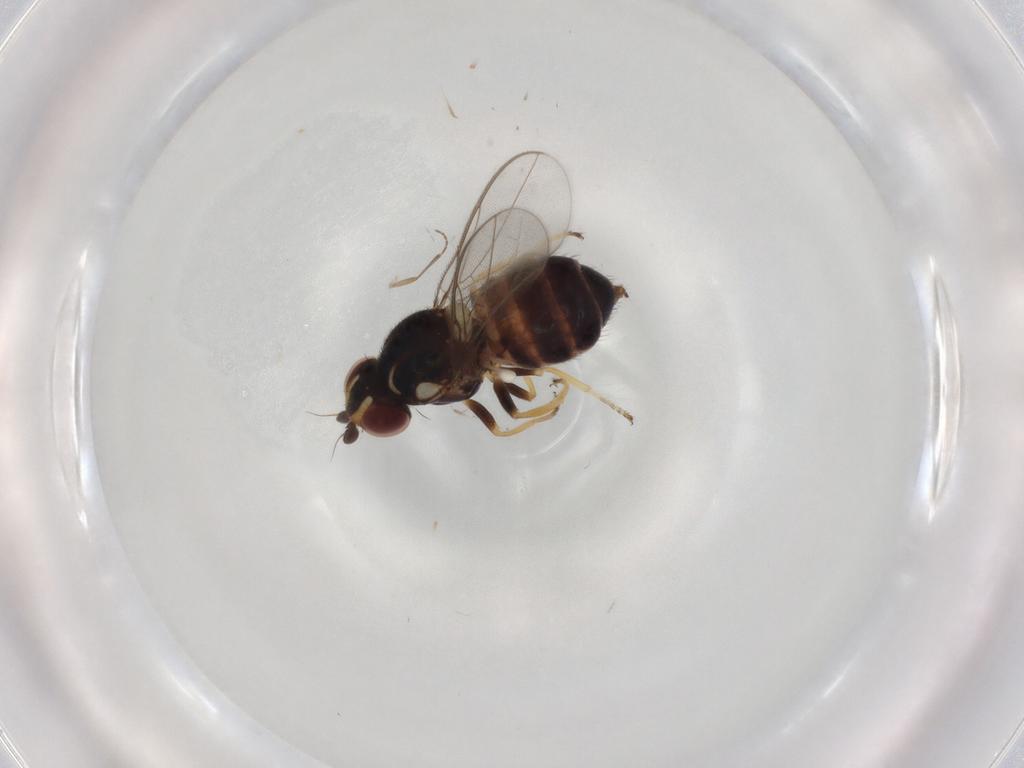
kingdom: Animalia
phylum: Arthropoda
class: Insecta
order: Diptera
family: Chloropidae
